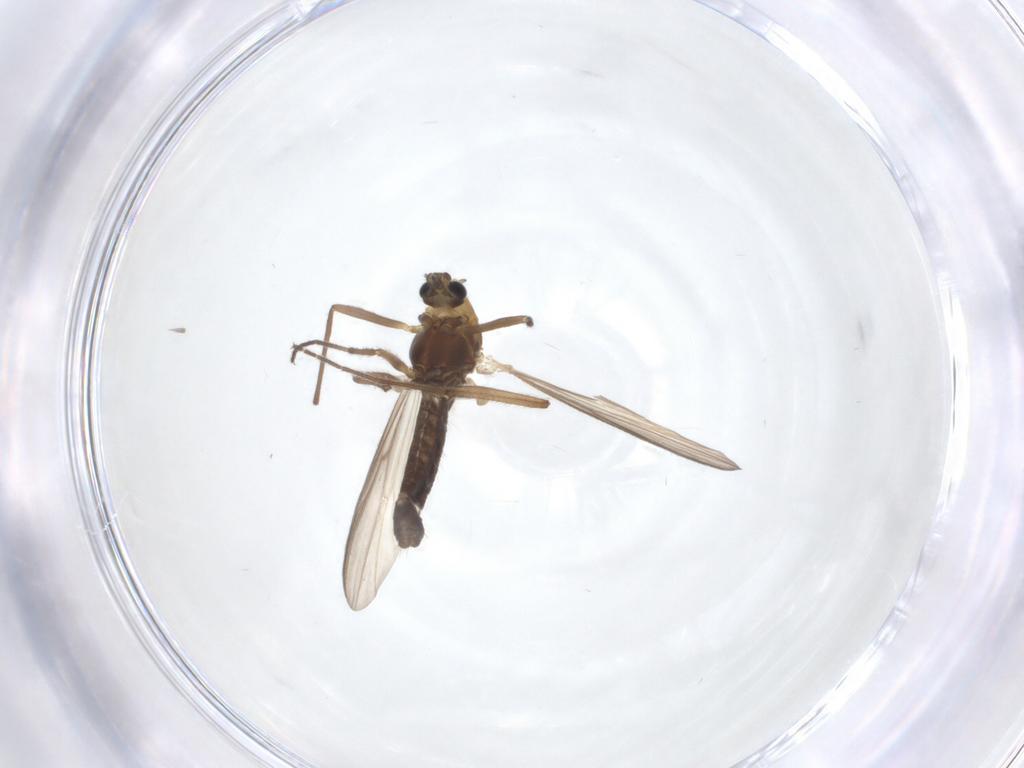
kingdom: Animalia
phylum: Arthropoda
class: Insecta
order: Diptera
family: Chironomidae
